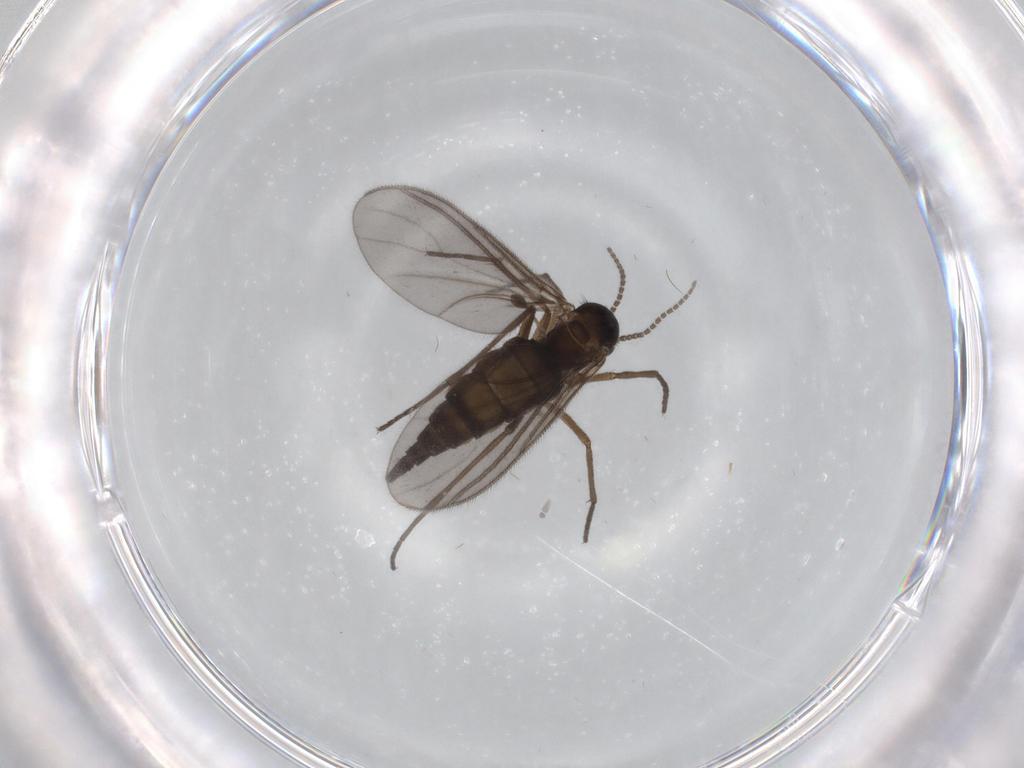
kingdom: Animalia
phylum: Arthropoda
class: Insecta
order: Diptera
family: Sciaridae
